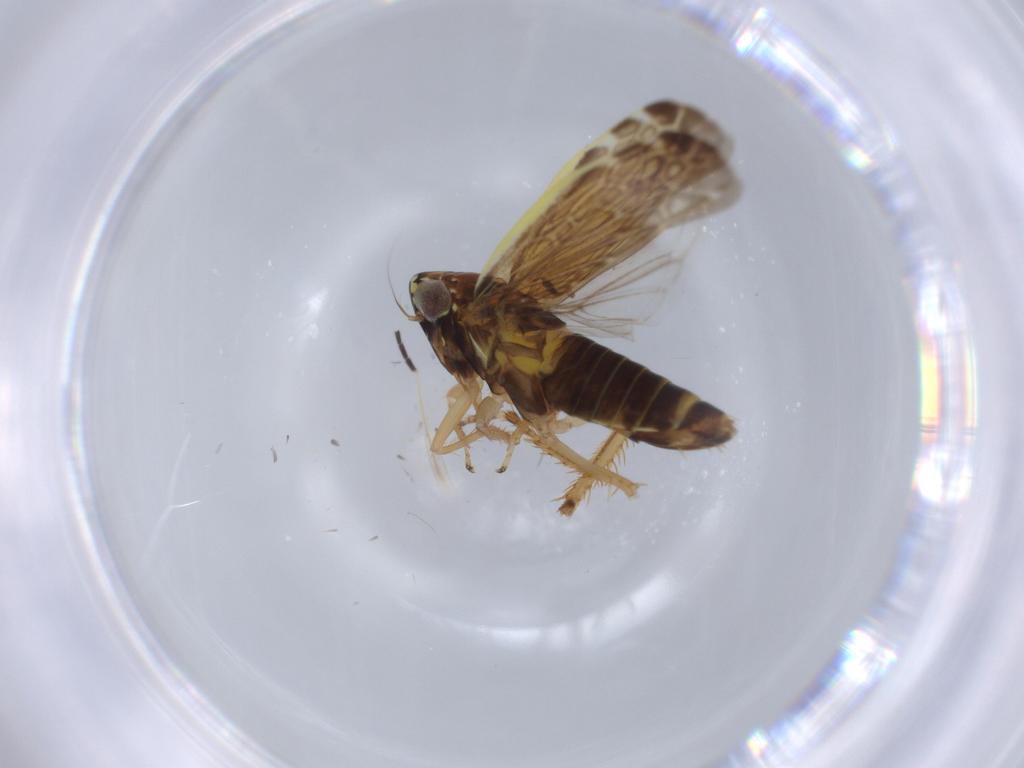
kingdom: Animalia
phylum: Arthropoda
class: Insecta
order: Hemiptera
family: Cicadellidae
